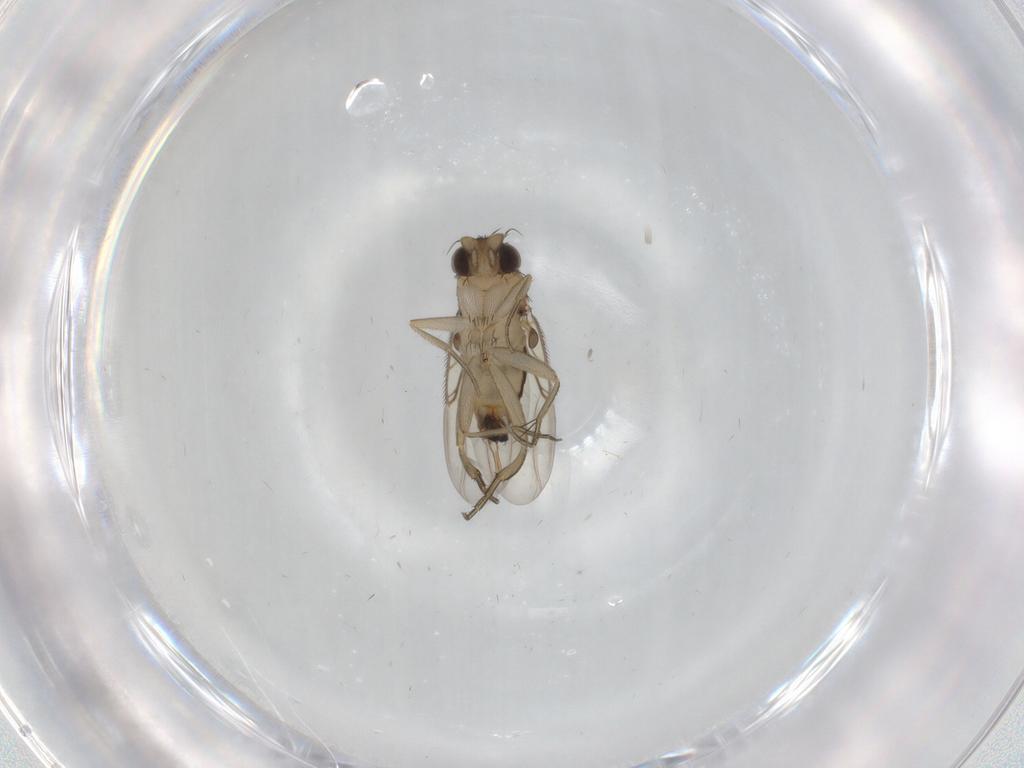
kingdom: Animalia
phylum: Arthropoda
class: Insecta
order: Diptera
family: Phoridae
